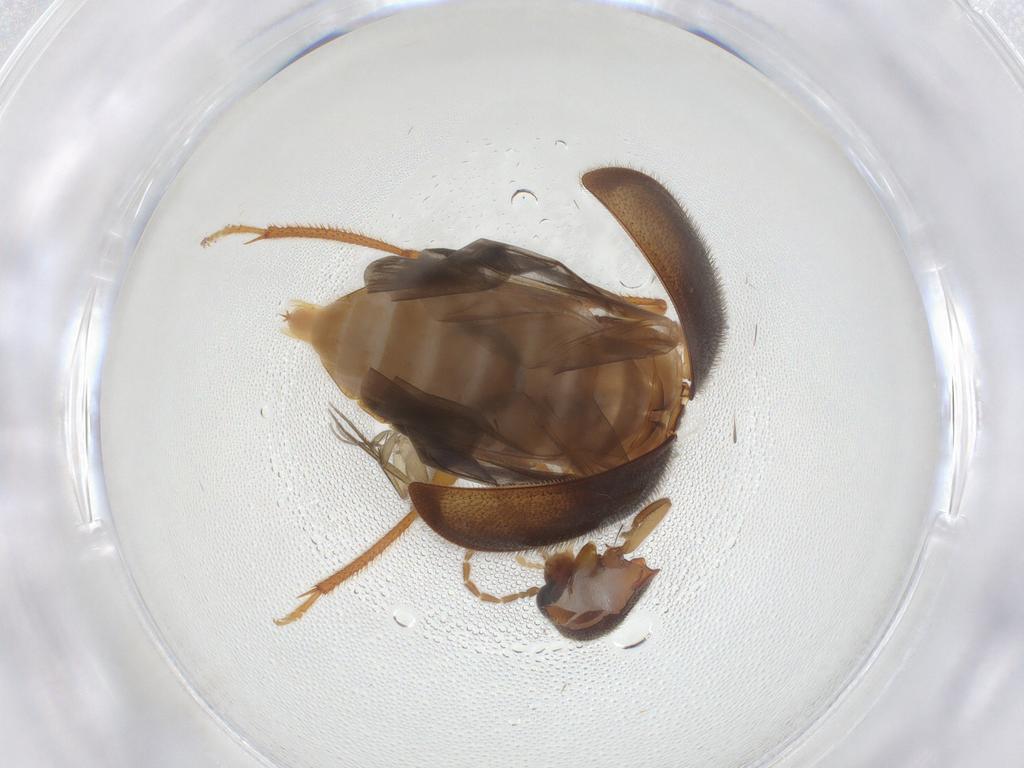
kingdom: Animalia
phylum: Arthropoda
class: Insecta
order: Coleoptera
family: Ptilodactylidae
